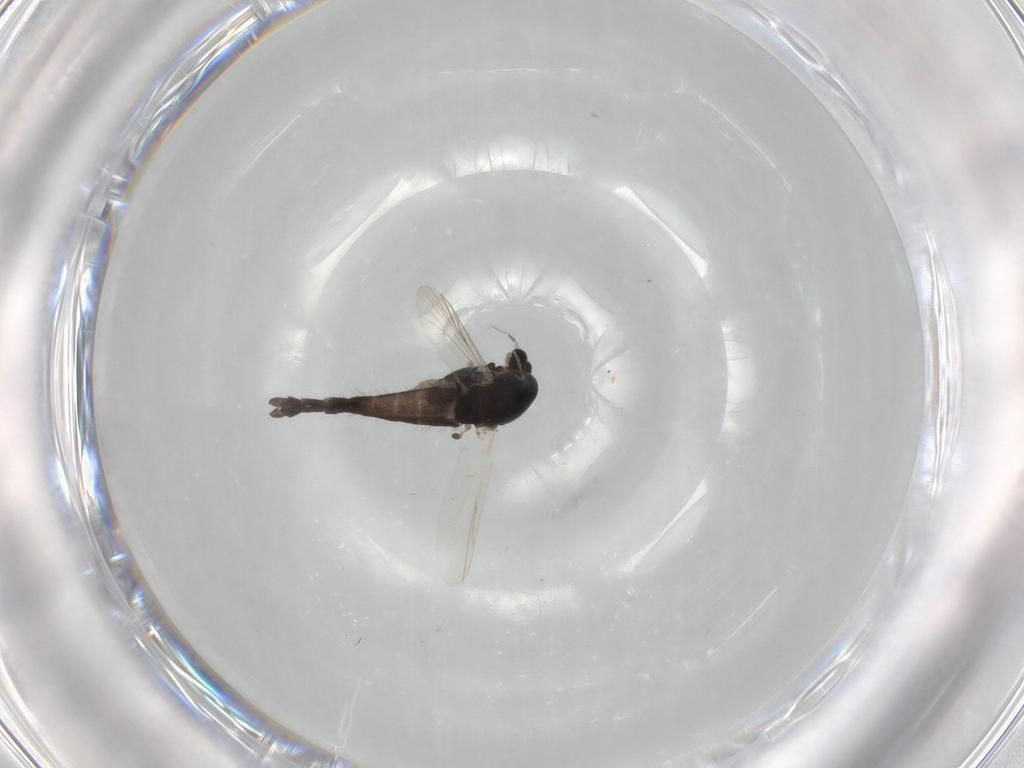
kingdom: Animalia
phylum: Arthropoda
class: Insecta
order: Diptera
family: Chironomidae
